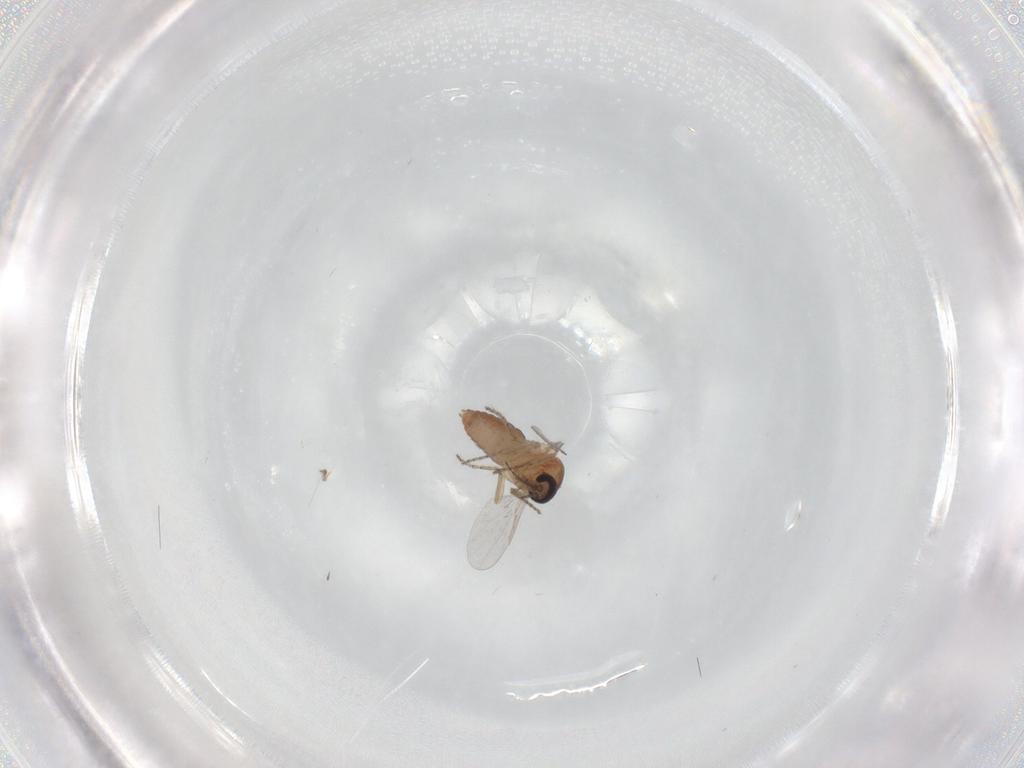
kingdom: Animalia
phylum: Arthropoda
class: Insecta
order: Diptera
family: Ceratopogonidae
